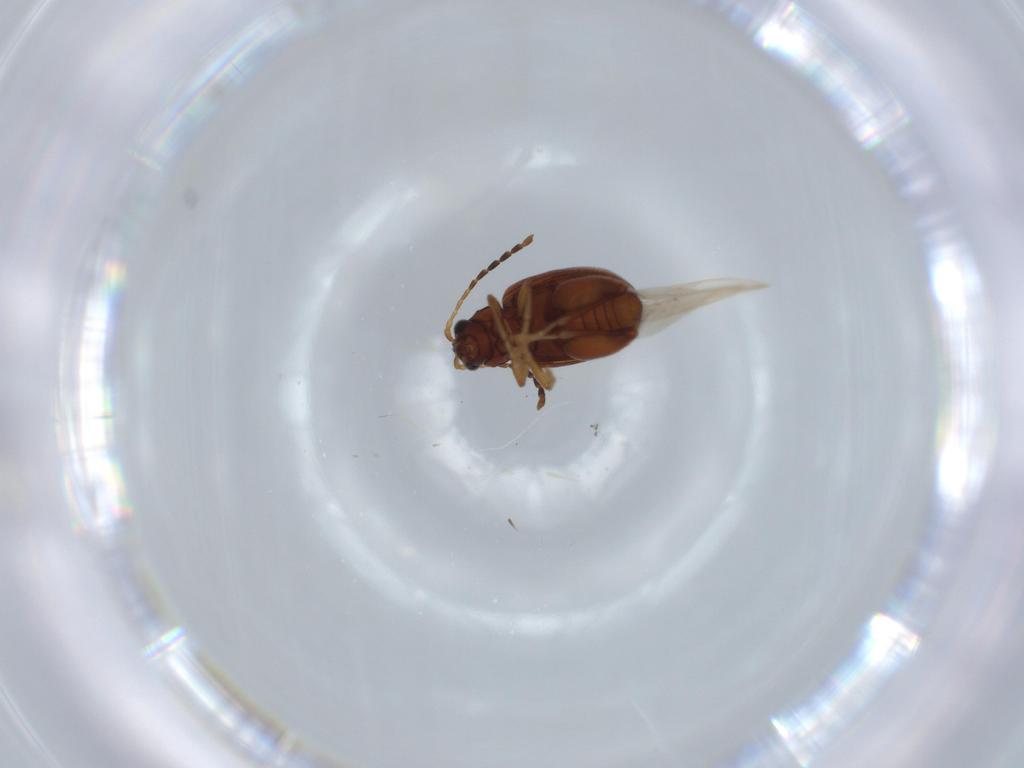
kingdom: Animalia
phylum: Arthropoda
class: Insecta
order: Coleoptera
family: Chrysomelidae
